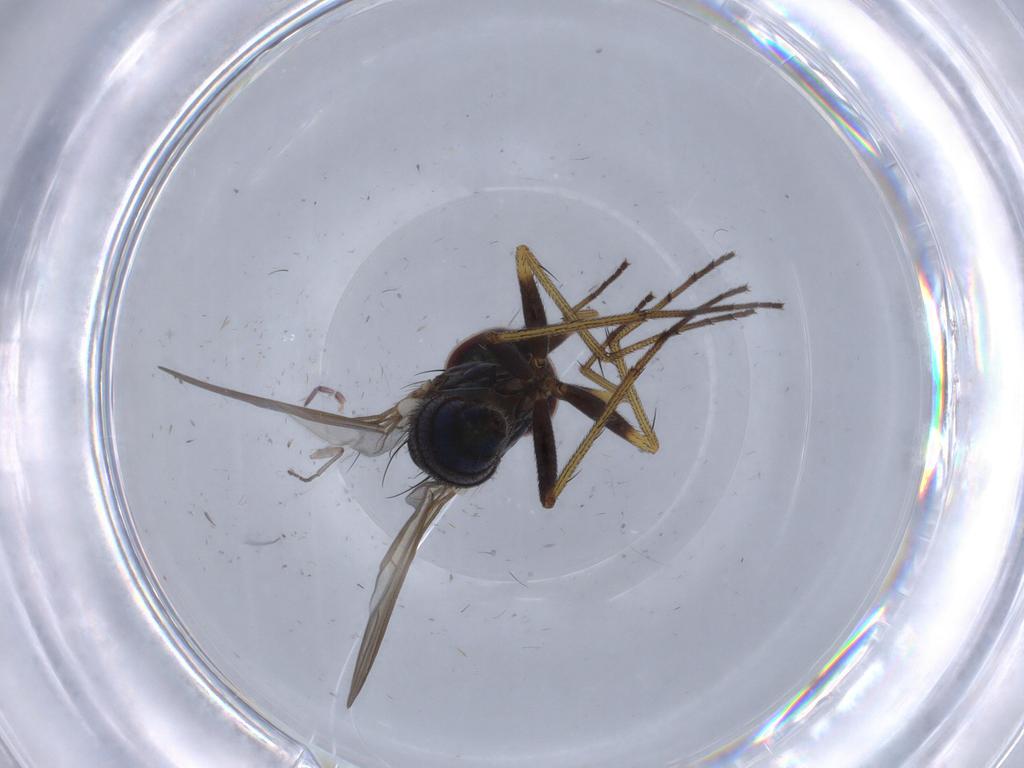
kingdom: Animalia
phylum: Arthropoda
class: Insecta
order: Diptera
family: Dolichopodidae
